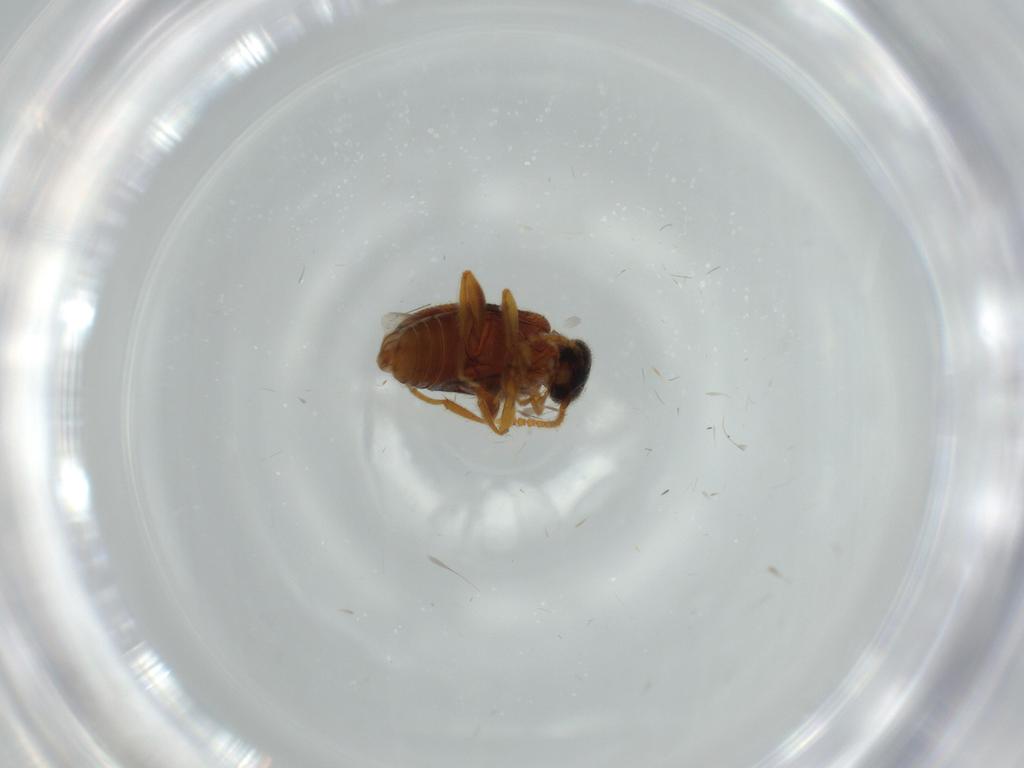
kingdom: Animalia
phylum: Arthropoda
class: Insecta
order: Coleoptera
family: Aderidae
